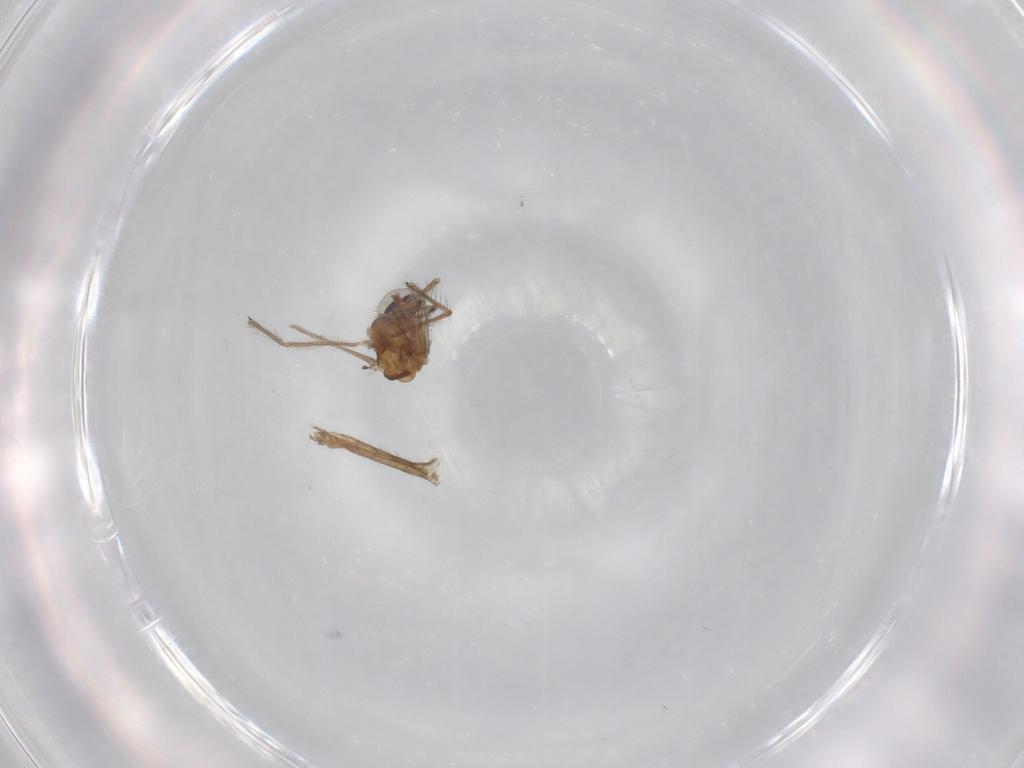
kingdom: Animalia
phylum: Arthropoda
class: Insecta
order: Diptera
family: Chironomidae
